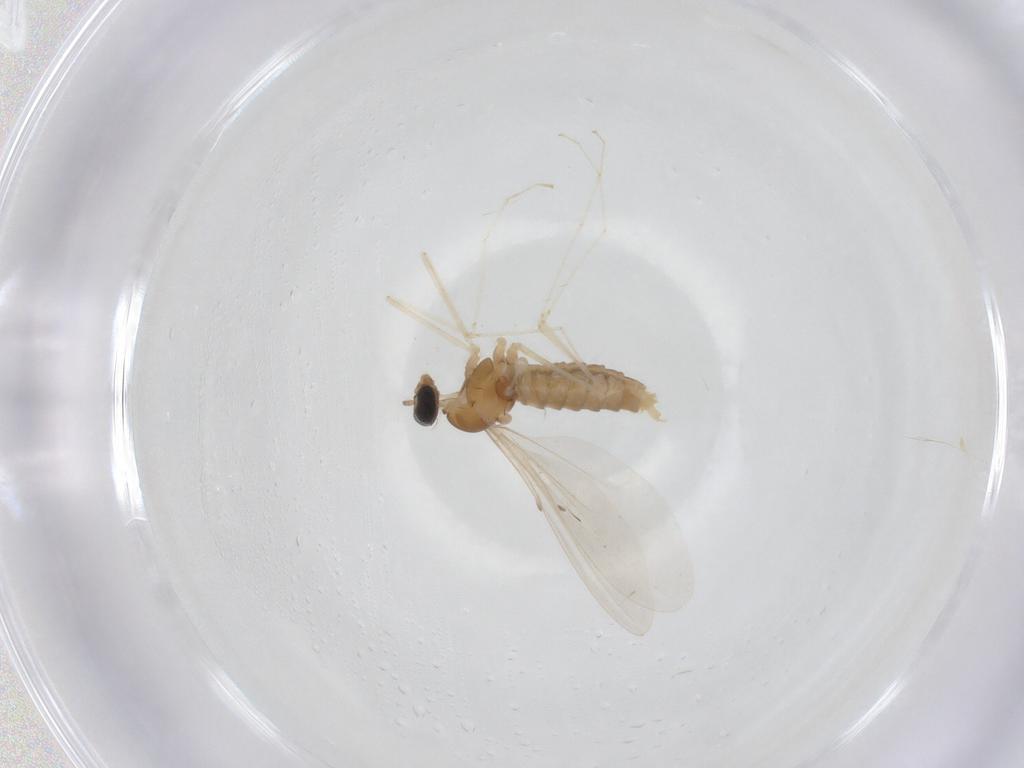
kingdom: Animalia
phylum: Arthropoda
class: Insecta
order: Diptera
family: Cecidomyiidae
